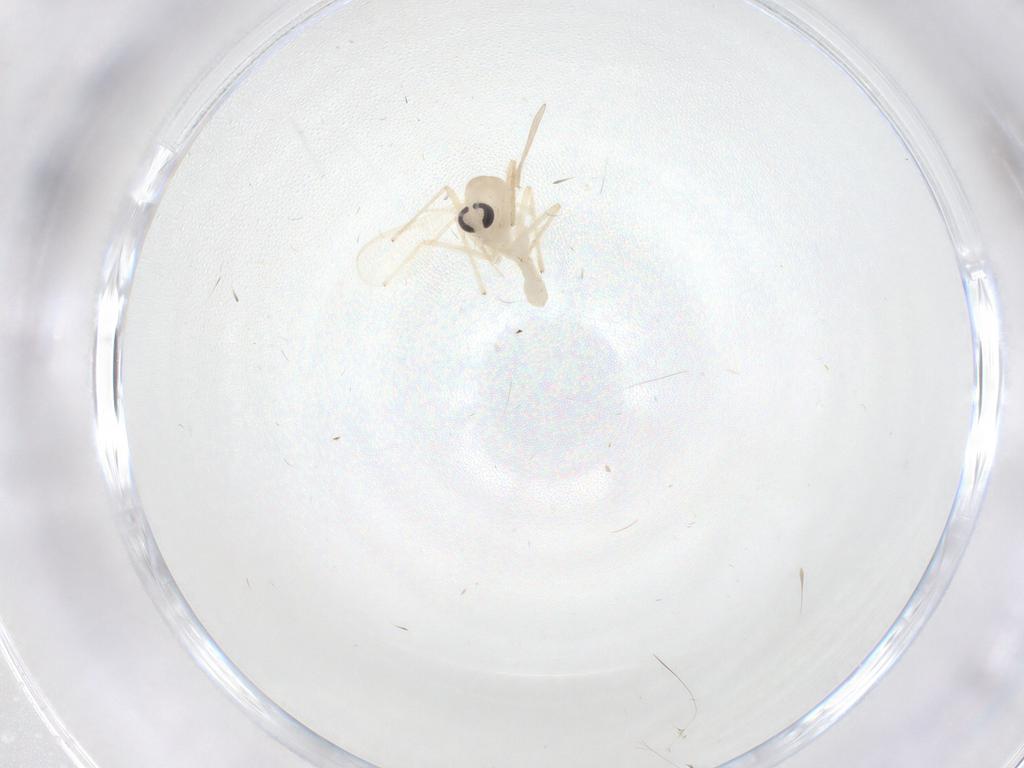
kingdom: Animalia
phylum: Arthropoda
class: Insecta
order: Diptera
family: Chironomidae
